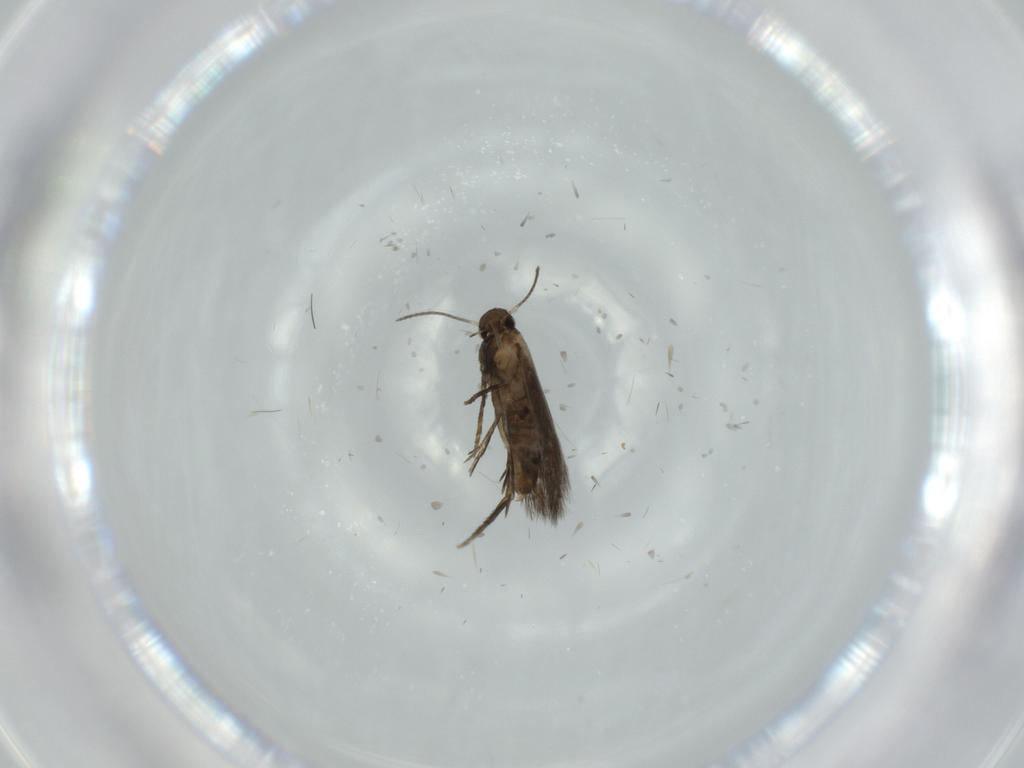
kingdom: Animalia
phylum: Arthropoda
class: Insecta
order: Lepidoptera
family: Heliozelidae
